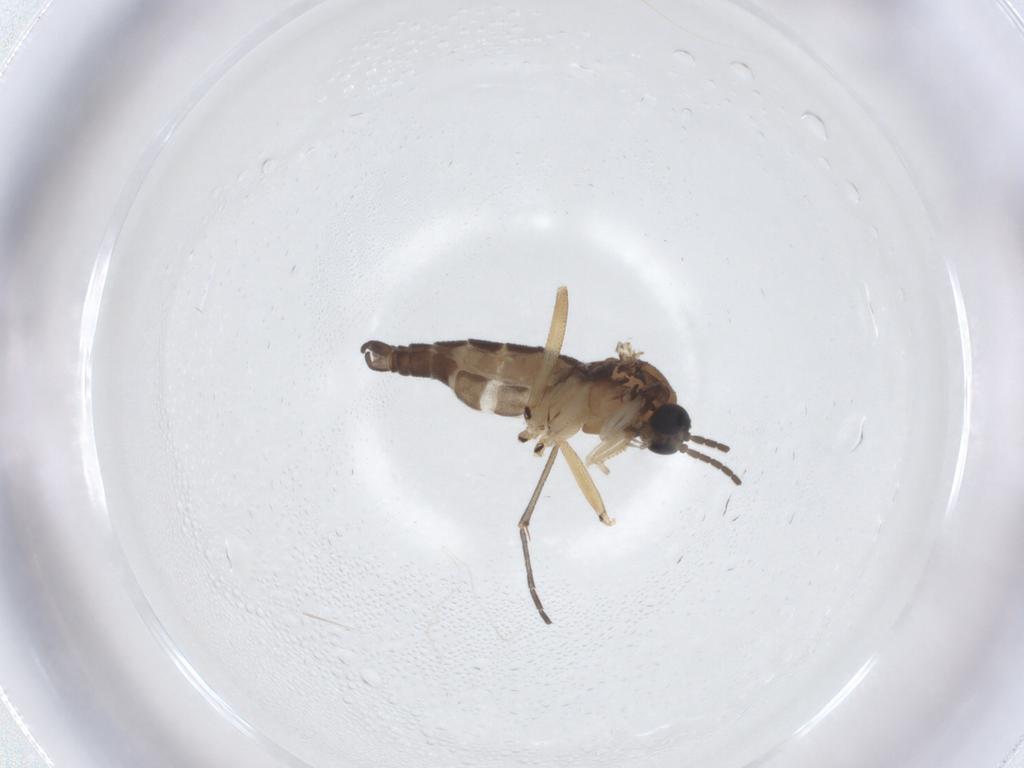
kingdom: Animalia
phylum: Arthropoda
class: Insecta
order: Diptera
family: Sciaridae
